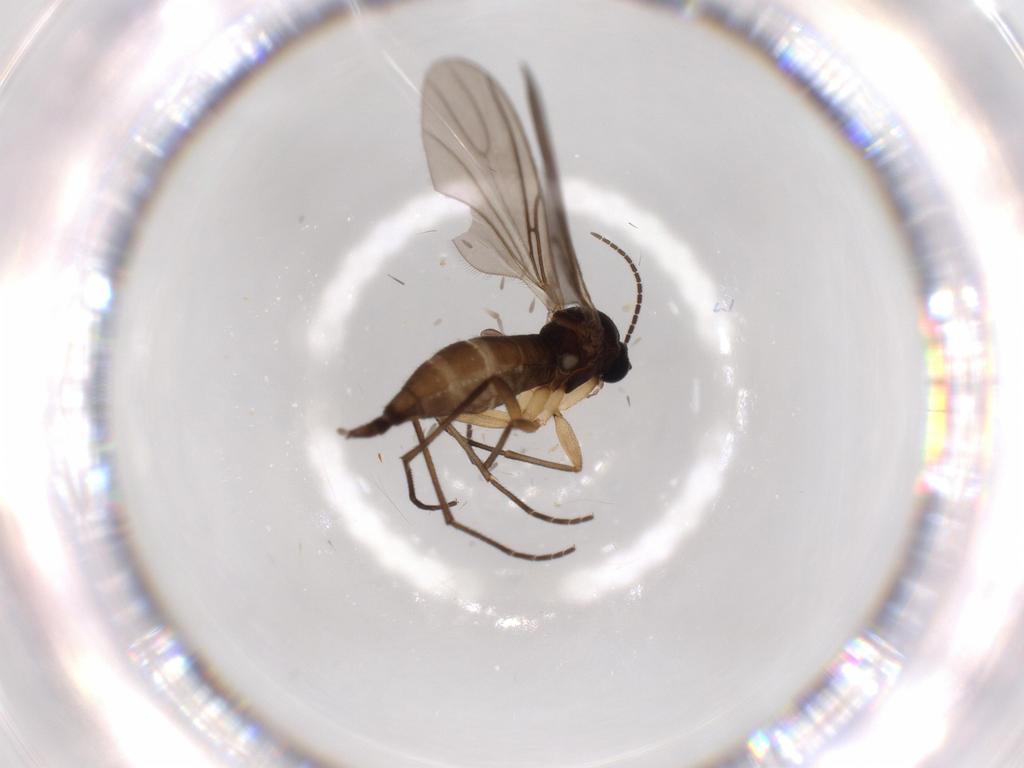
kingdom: Animalia
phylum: Arthropoda
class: Insecta
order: Diptera
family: Sciaridae
